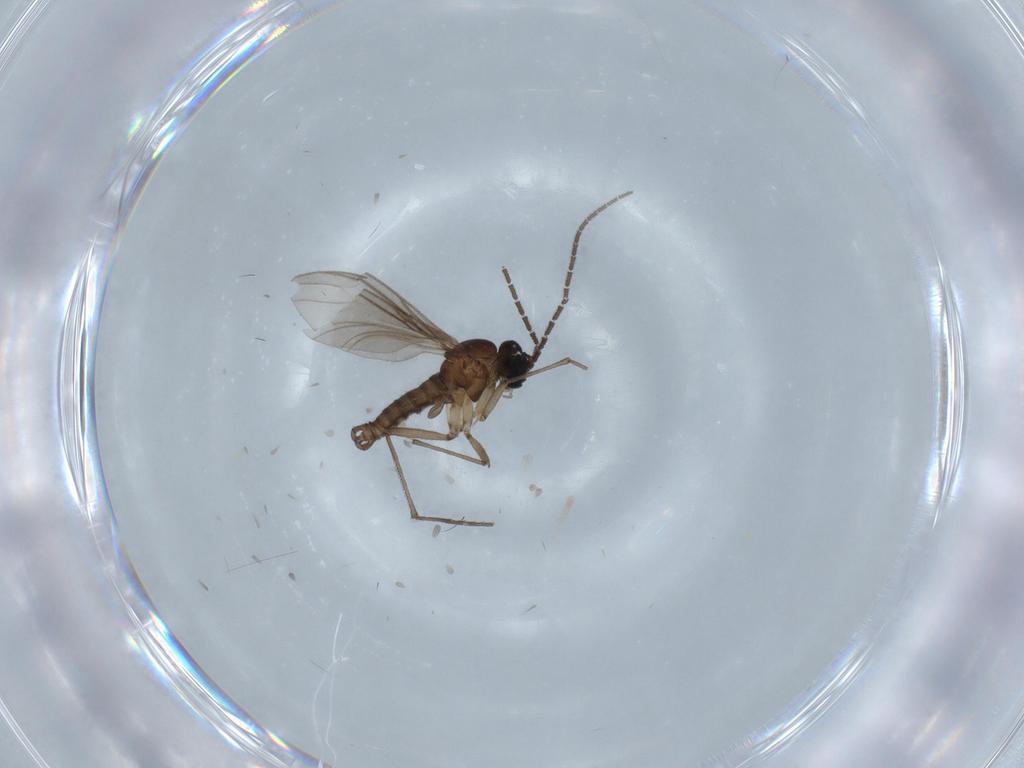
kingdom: Animalia
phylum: Arthropoda
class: Insecta
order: Diptera
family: Ceratopogonidae
